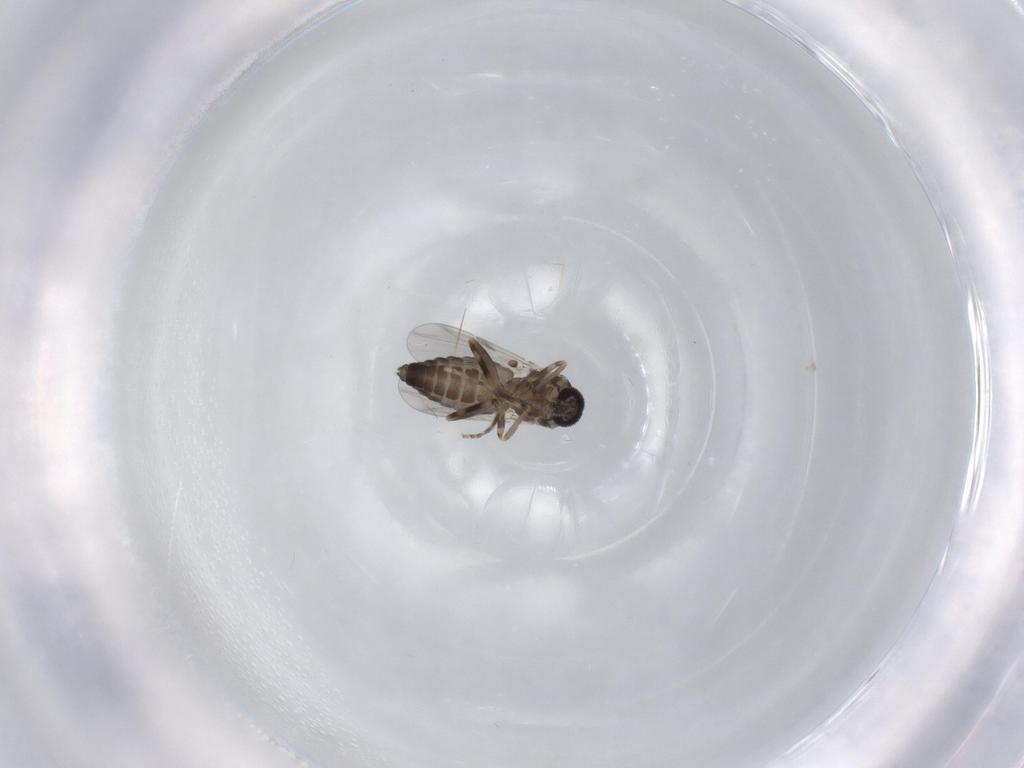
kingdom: Animalia
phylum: Arthropoda
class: Insecta
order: Diptera
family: Ceratopogonidae
